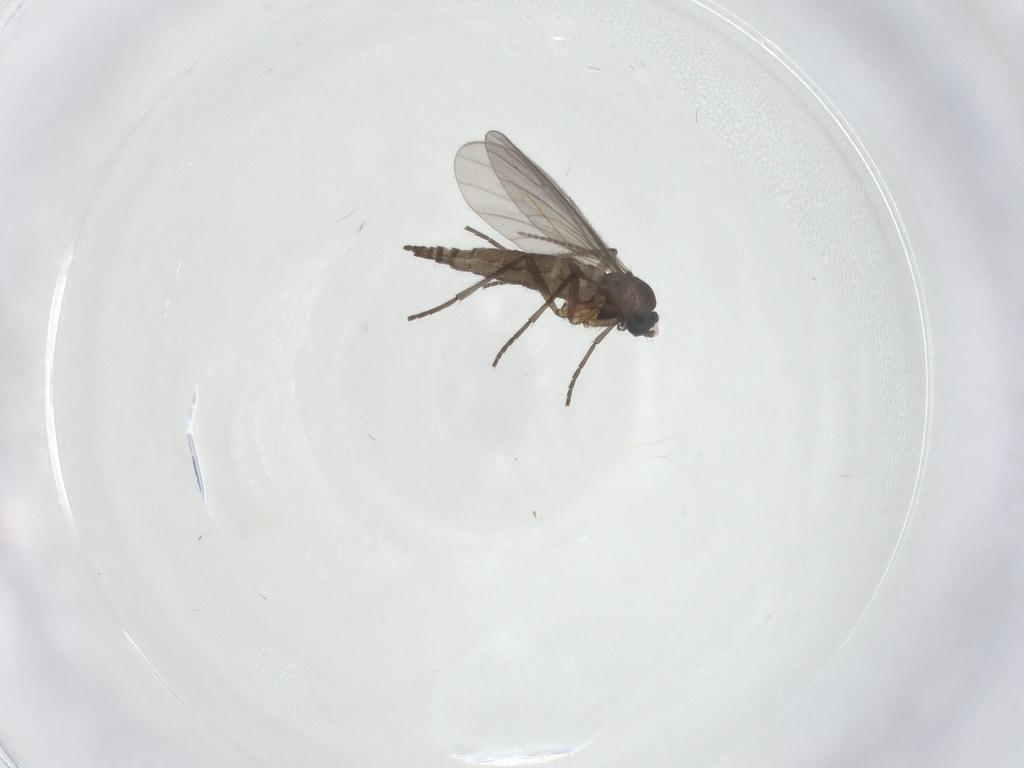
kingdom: Animalia
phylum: Arthropoda
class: Insecta
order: Diptera
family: Sciaridae
